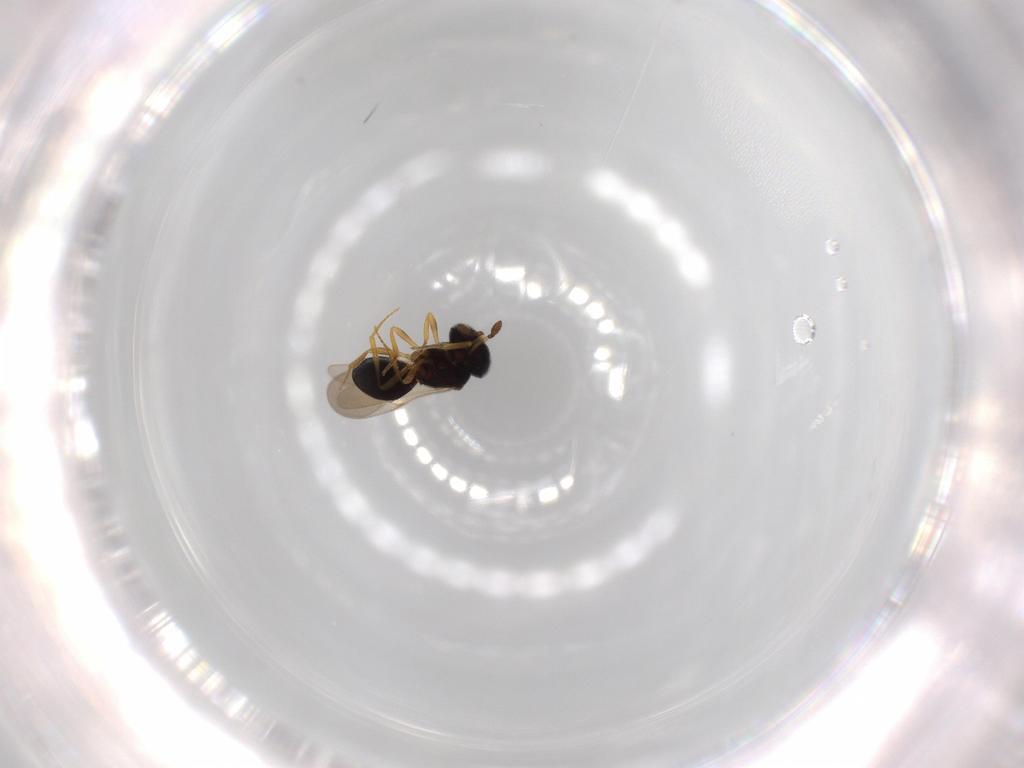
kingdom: Animalia
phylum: Arthropoda
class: Insecta
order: Hymenoptera
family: Scelionidae
